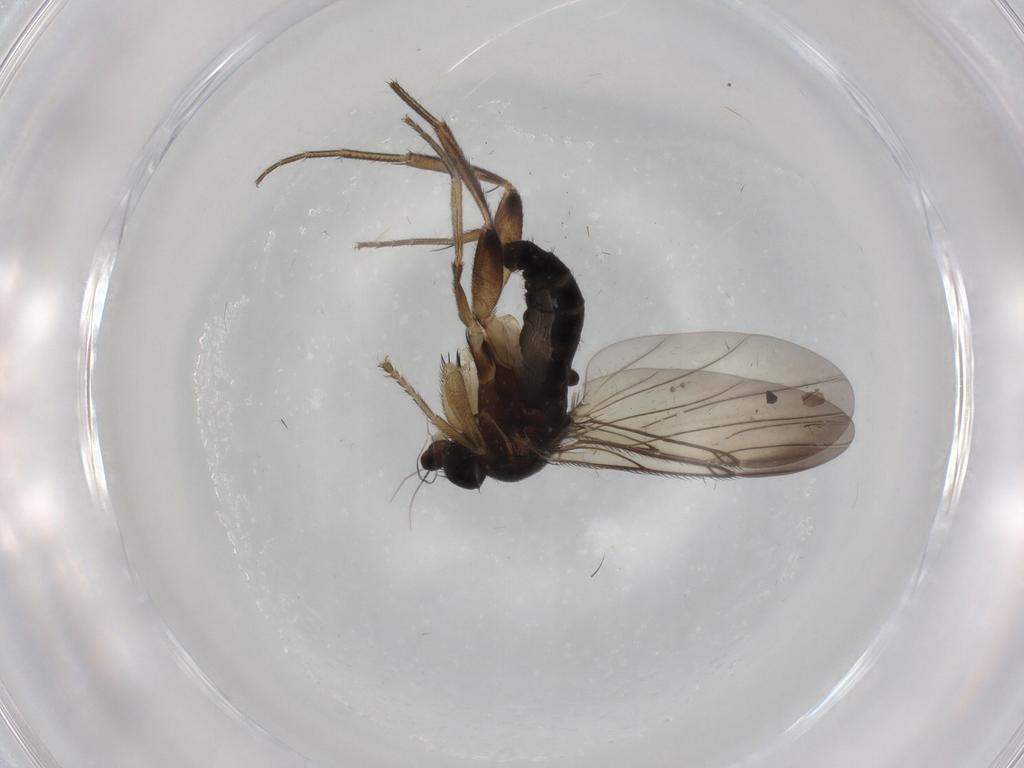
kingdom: Animalia
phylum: Arthropoda
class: Insecta
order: Diptera
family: Phoridae
